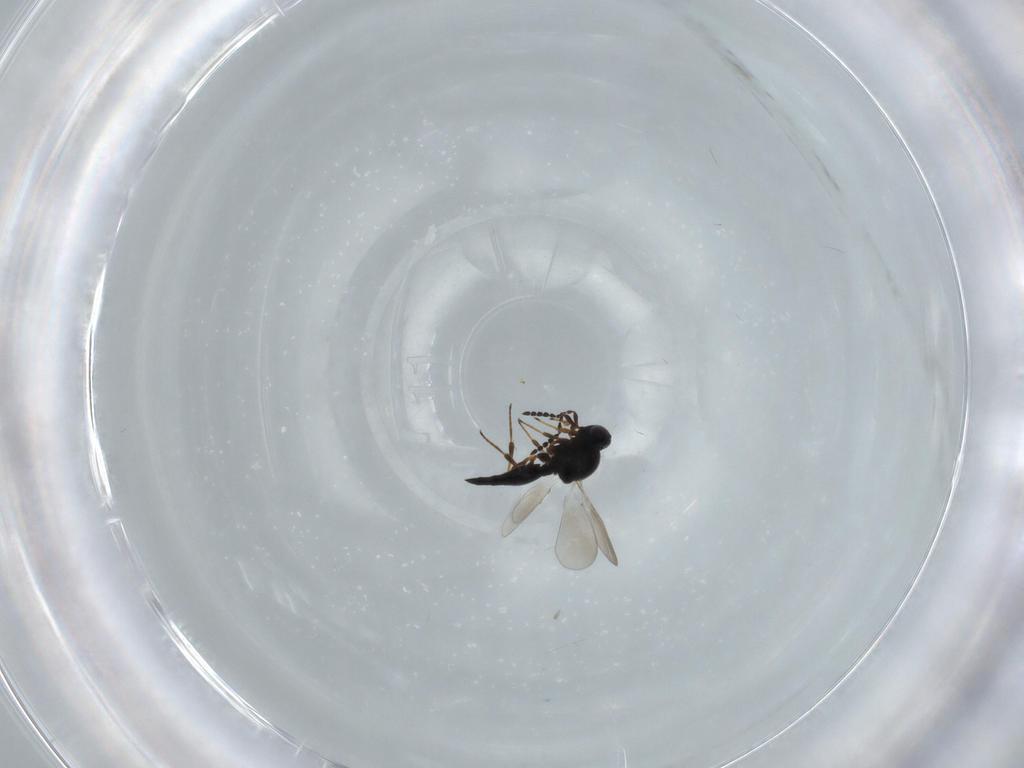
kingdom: Animalia
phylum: Arthropoda
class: Insecta
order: Hymenoptera
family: Platygastridae
